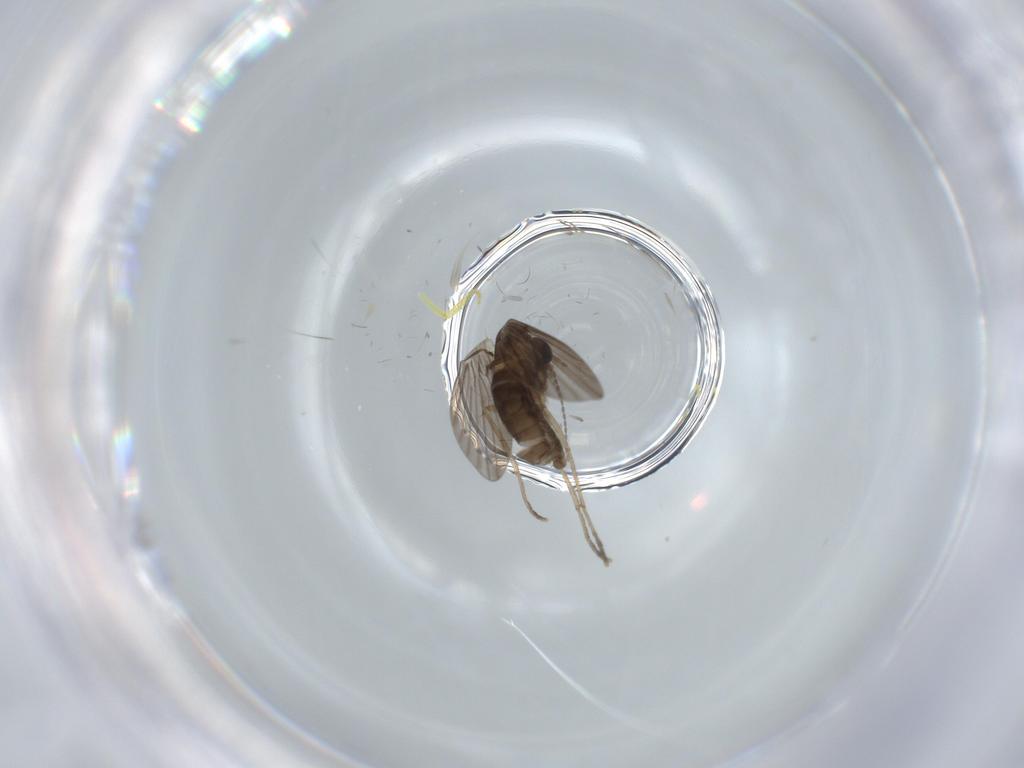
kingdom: Animalia
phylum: Arthropoda
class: Insecta
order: Diptera
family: Psychodidae
